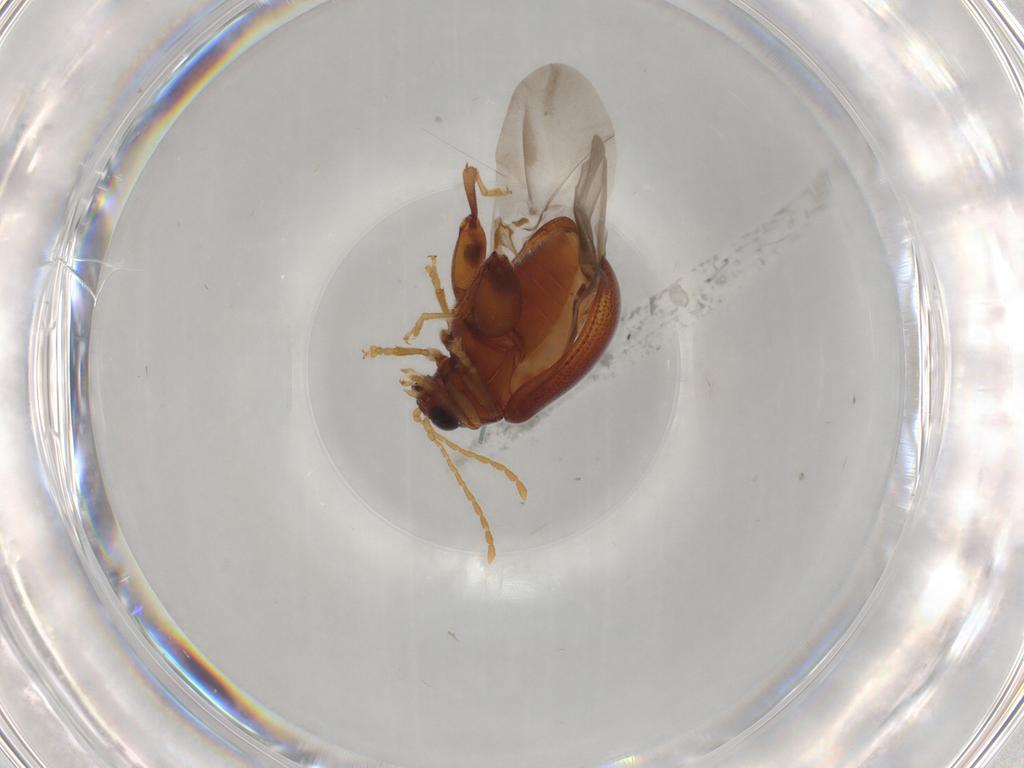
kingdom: Animalia
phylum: Arthropoda
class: Insecta
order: Coleoptera
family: Chrysomelidae
